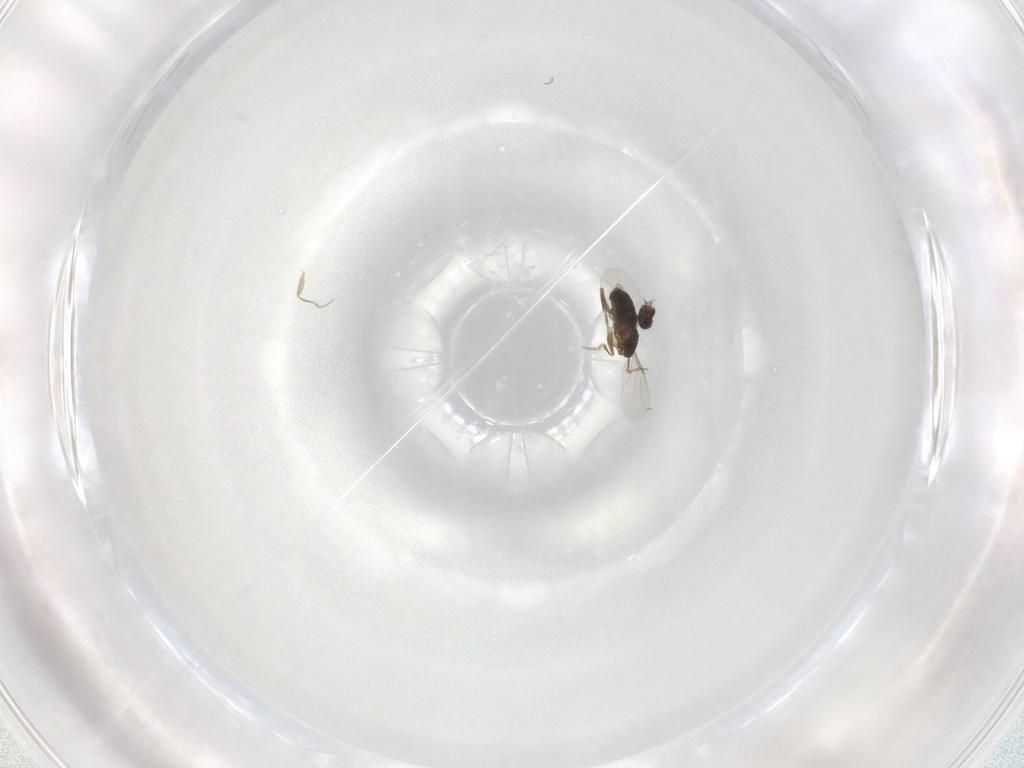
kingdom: Animalia
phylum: Arthropoda
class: Insecta
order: Diptera
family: Phoridae
